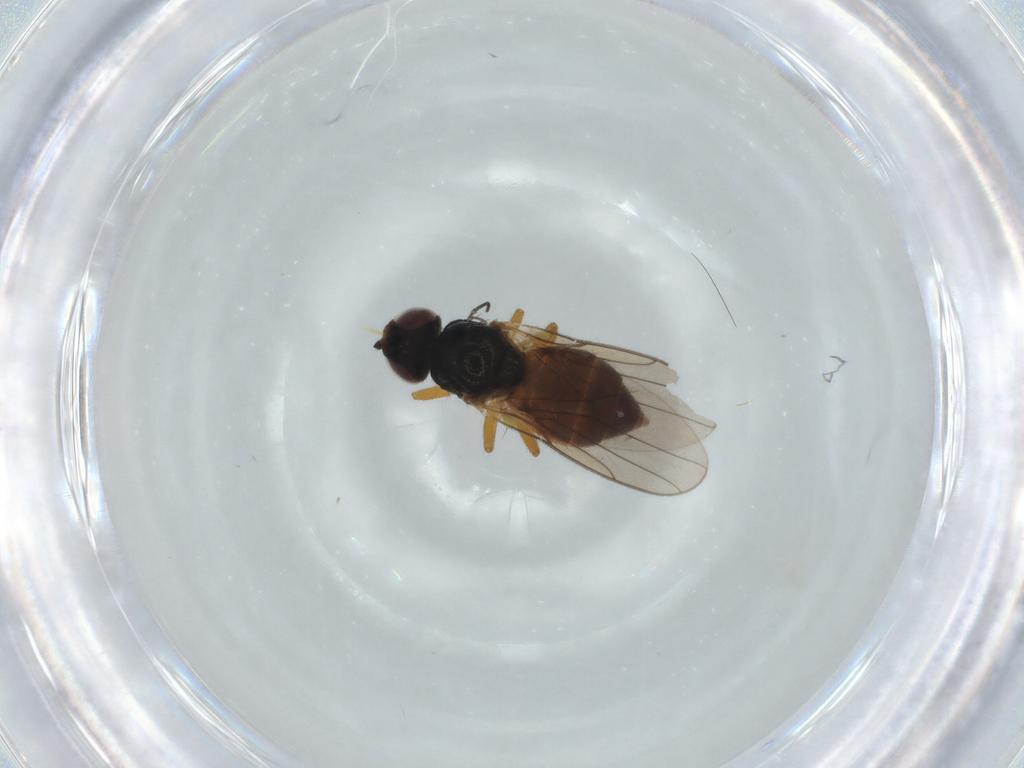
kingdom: Animalia
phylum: Arthropoda
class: Insecta
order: Diptera
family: Chloropidae
